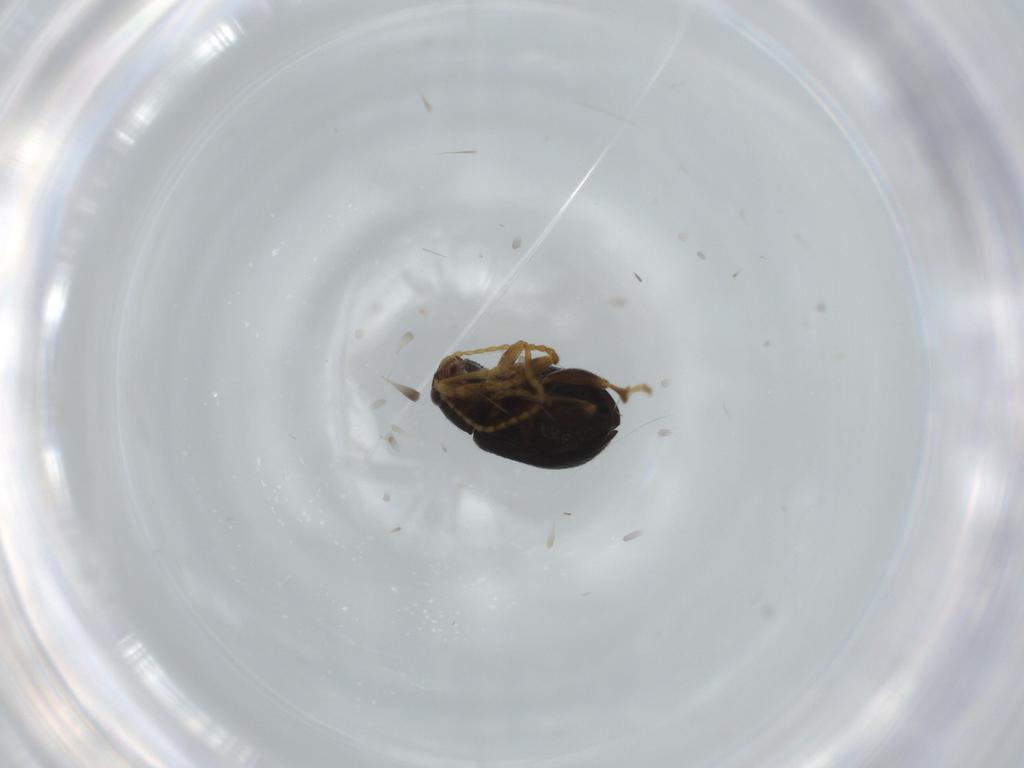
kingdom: Animalia
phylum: Arthropoda
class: Insecta
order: Coleoptera
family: Chrysomelidae
